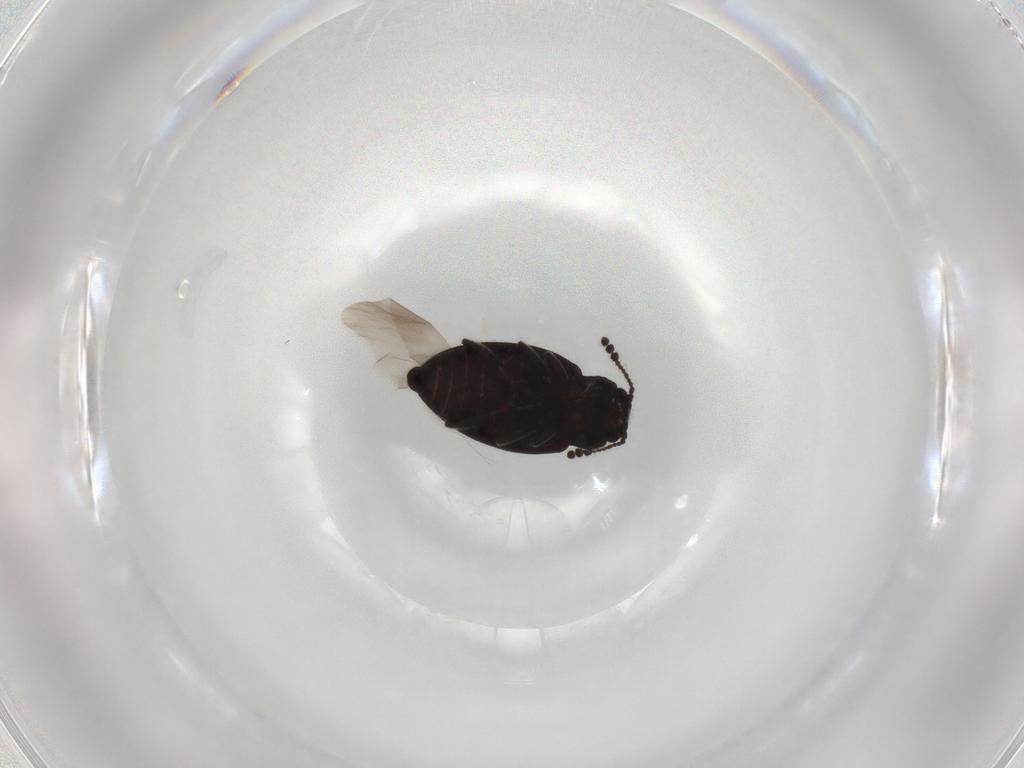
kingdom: Animalia
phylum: Arthropoda
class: Insecta
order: Coleoptera
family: Erotylidae
